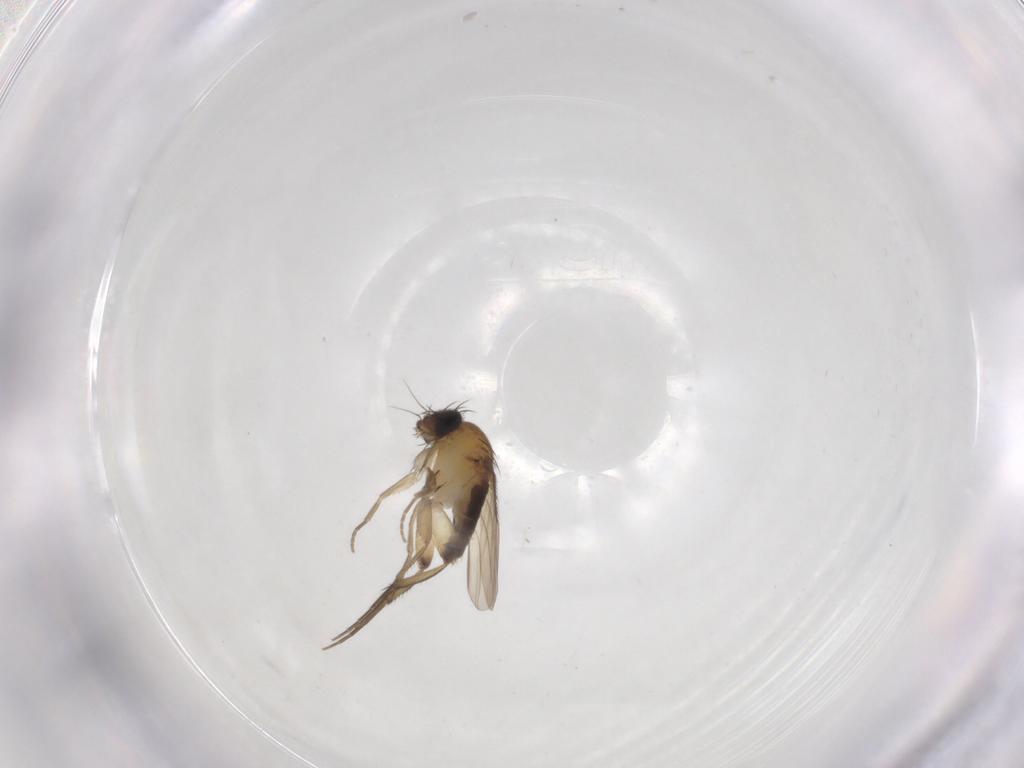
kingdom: Animalia
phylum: Arthropoda
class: Insecta
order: Diptera
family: Phoridae
